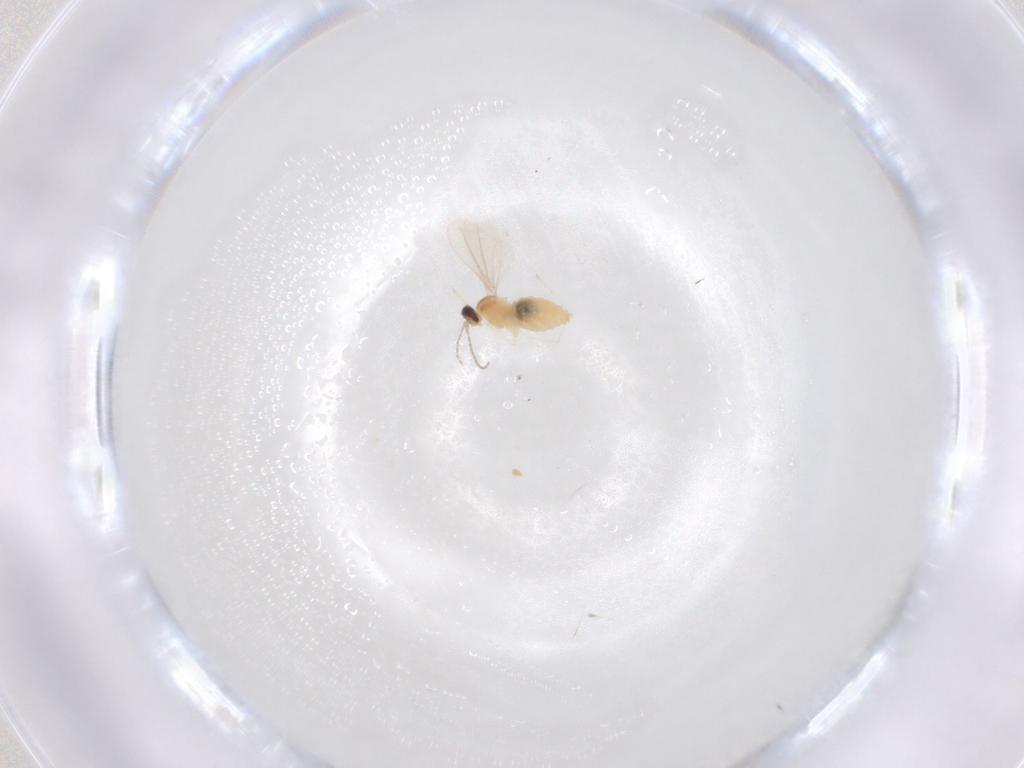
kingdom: Animalia
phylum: Arthropoda
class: Insecta
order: Diptera
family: Cecidomyiidae
